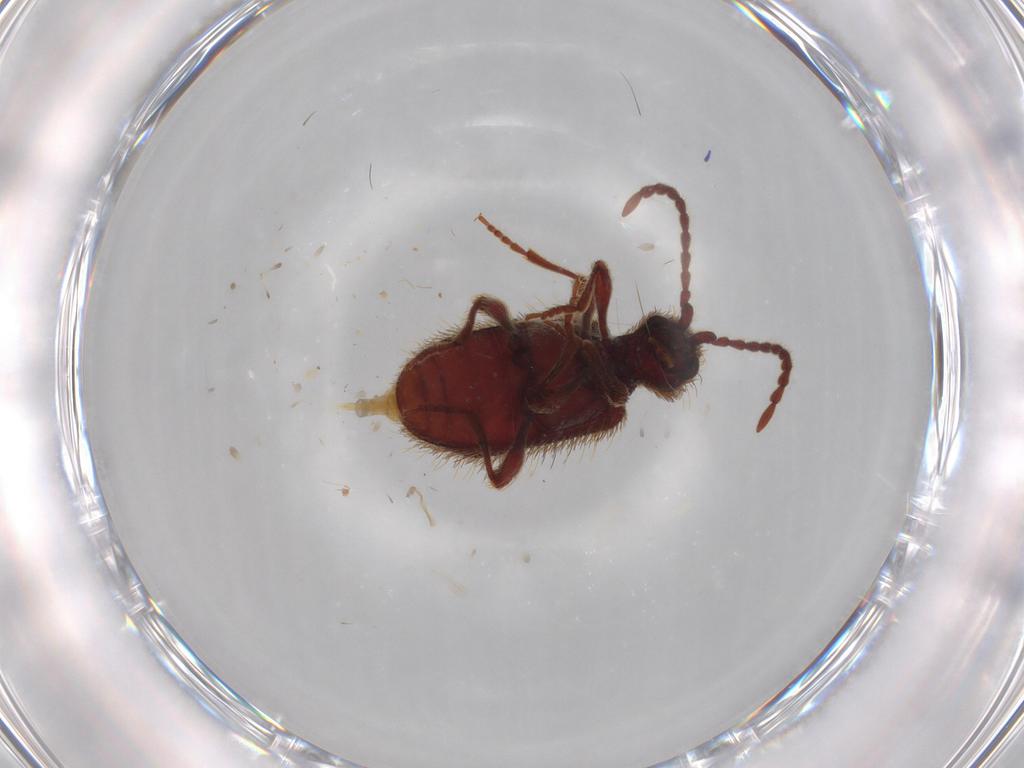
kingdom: Animalia
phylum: Arthropoda
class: Insecta
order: Coleoptera
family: Ptinidae
